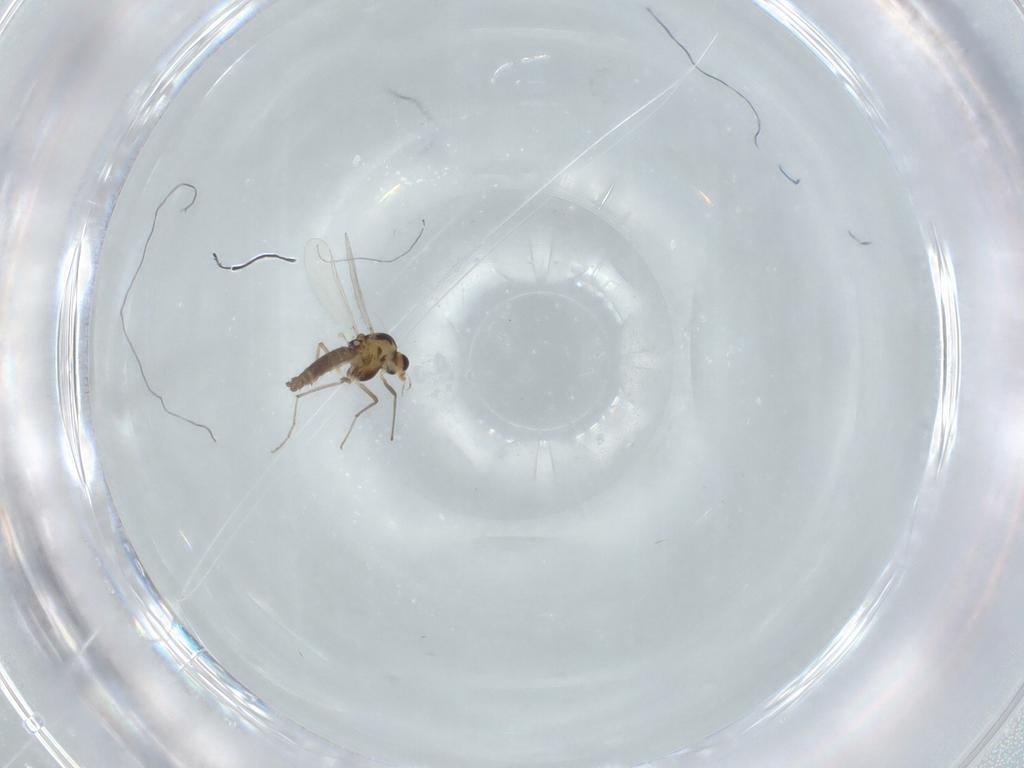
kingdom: Animalia
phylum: Arthropoda
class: Insecta
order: Diptera
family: Chironomidae
